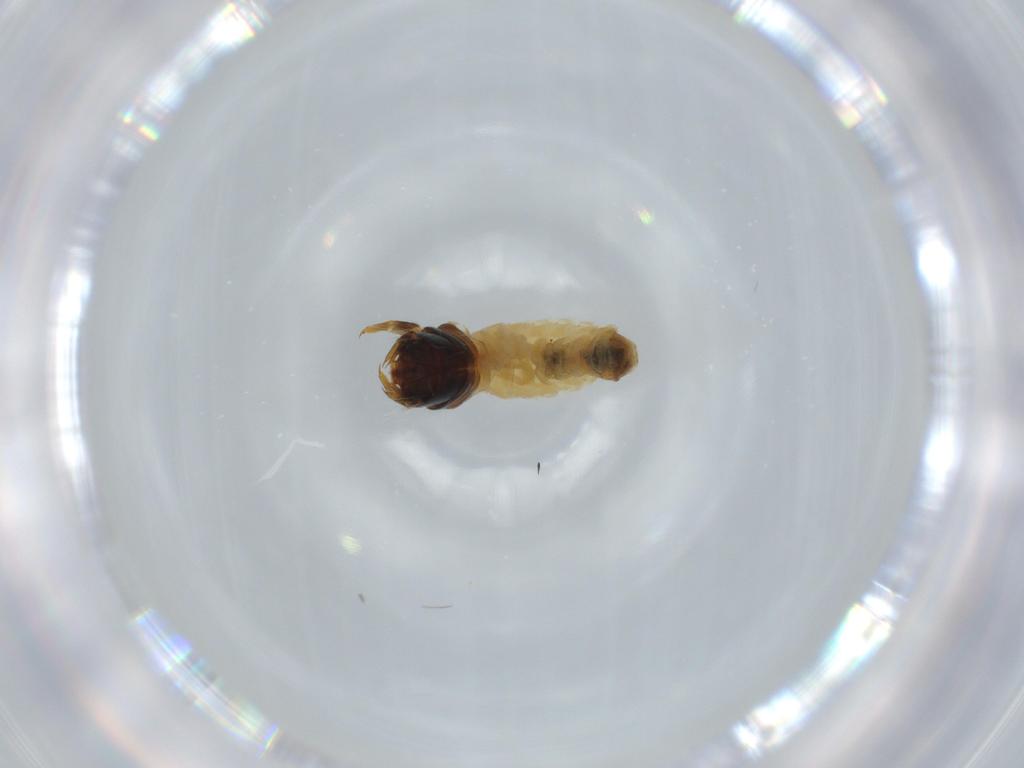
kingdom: Animalia
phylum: Arthropoda
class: Insecta
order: Lepidoptera
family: Psychidae
